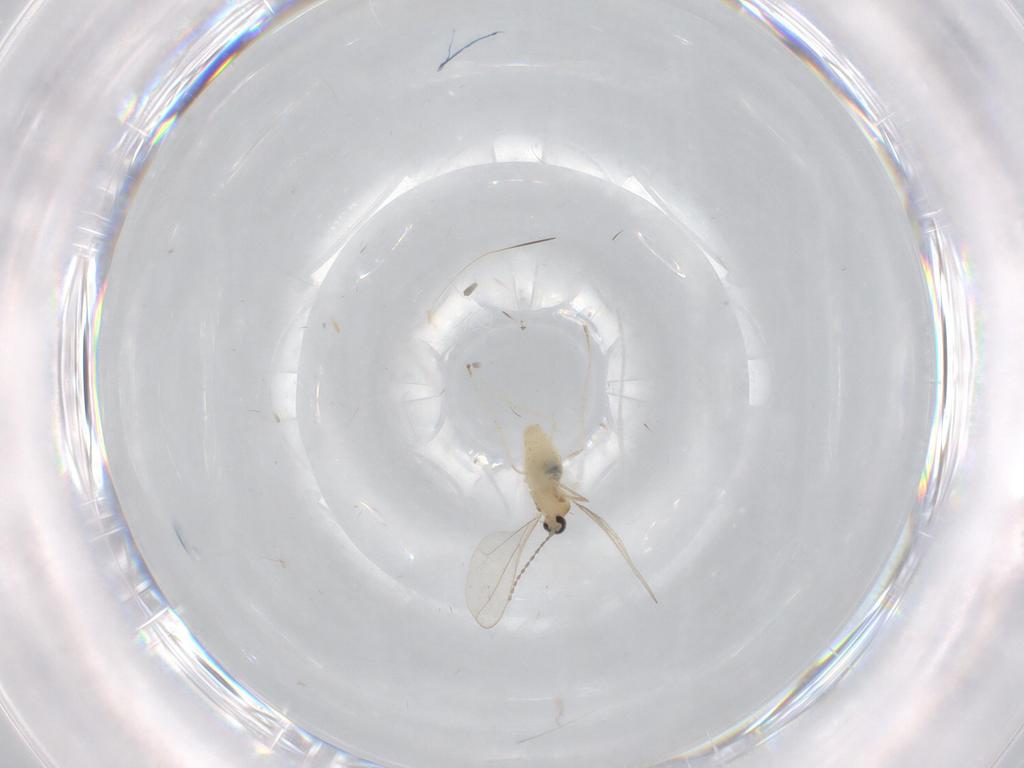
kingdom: Animalia
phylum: Arthropoda
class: Insecta
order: Diptera
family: Cecidomyiidae
